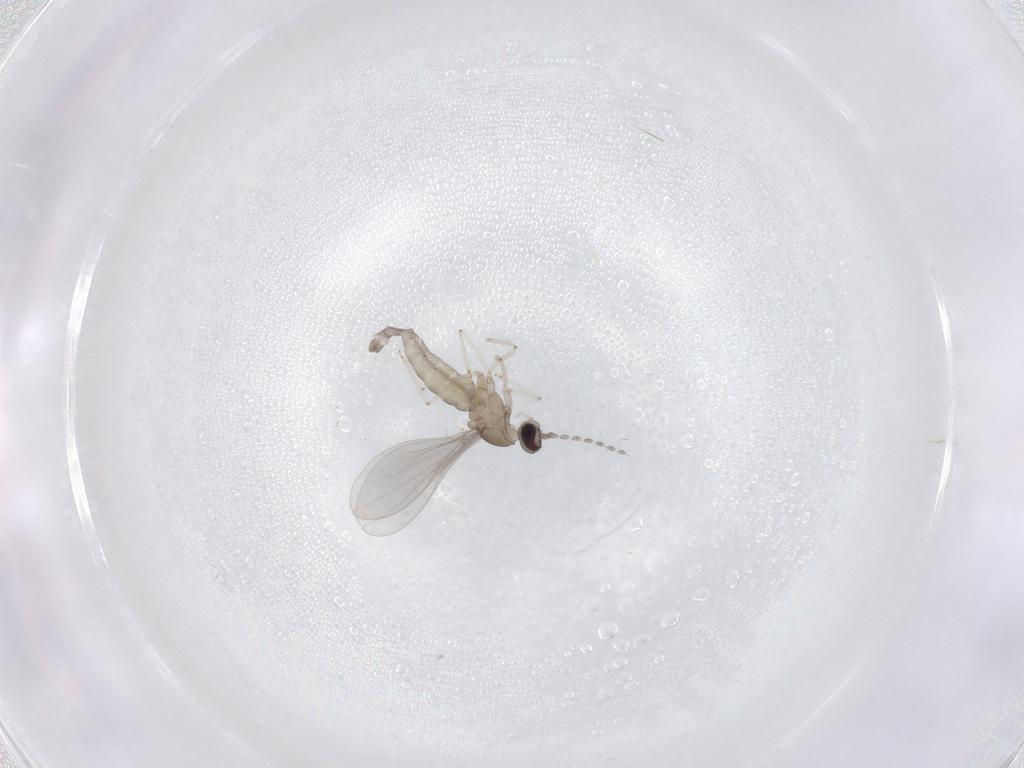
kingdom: Animalia
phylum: Arthropoda
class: Insecta
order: Diptera
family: Cecidomyiidae
